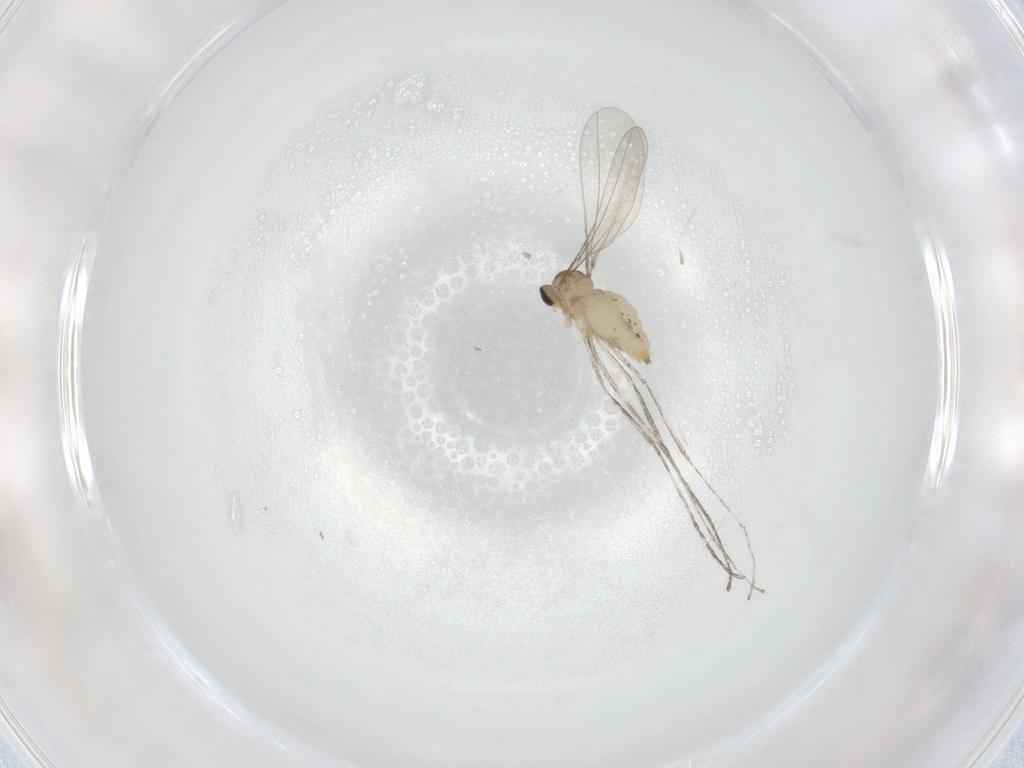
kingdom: Animalia
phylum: Arthropoda
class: Insecta
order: Diptera
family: Cecidomyiidae
